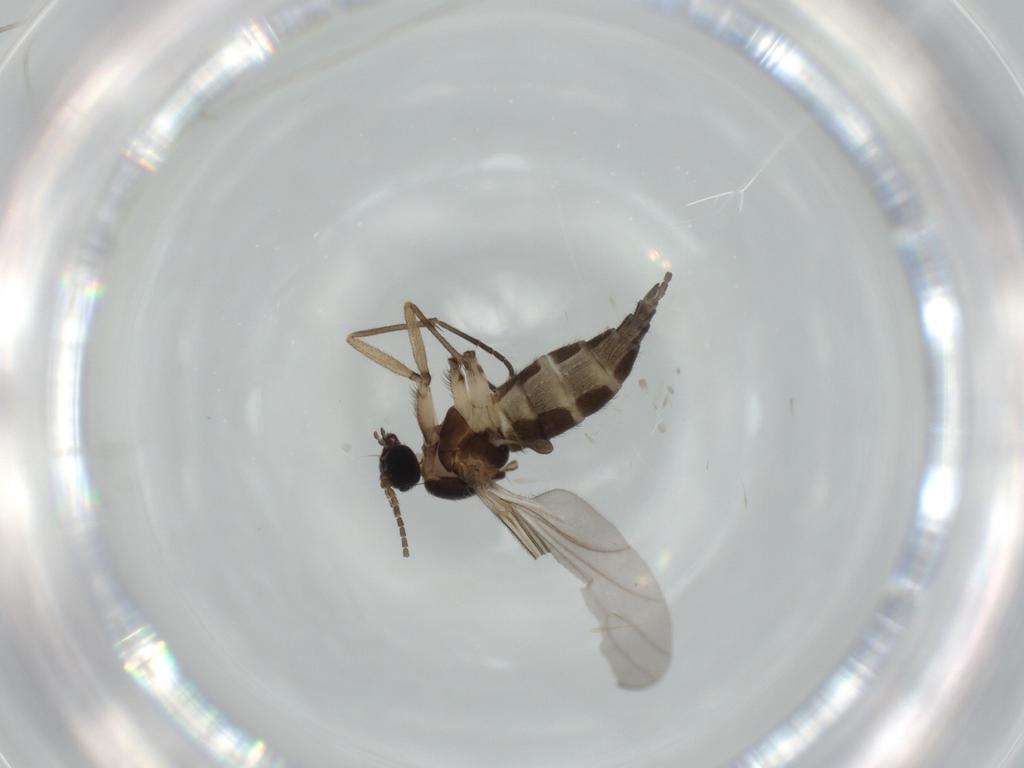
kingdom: Animalia
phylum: Arthropoda
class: Insecta
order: Diptera
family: Sciaridae
